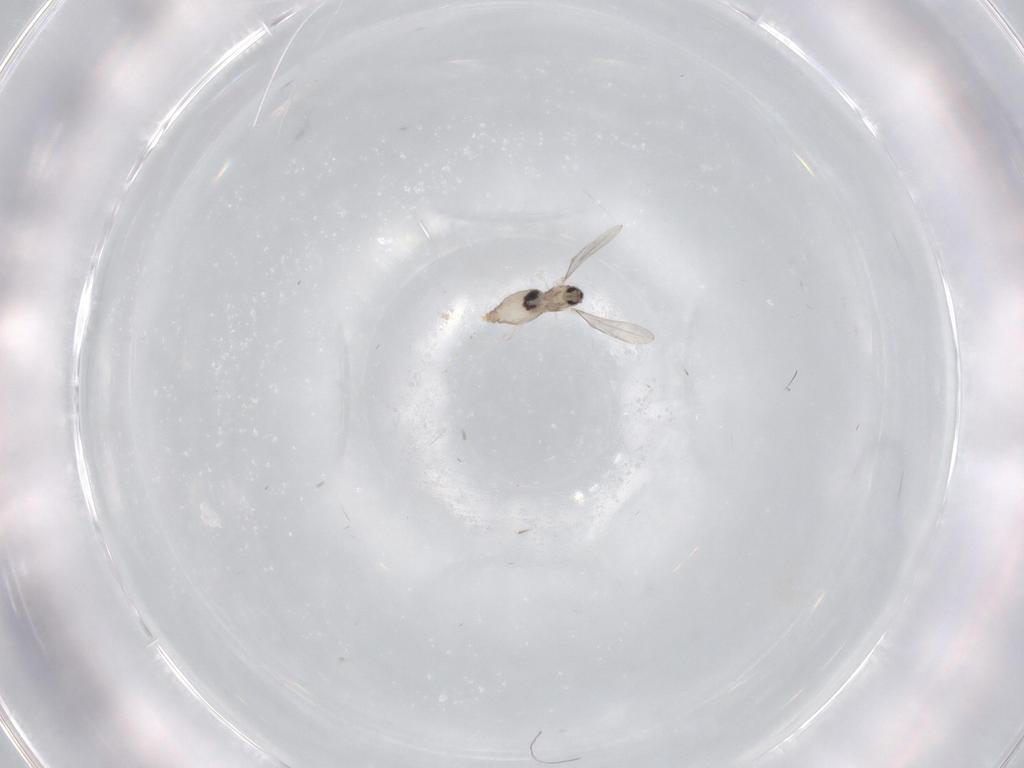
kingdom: Animalia
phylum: Arthropoda
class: Insecta
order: Diptera
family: Cecidomyiidae
